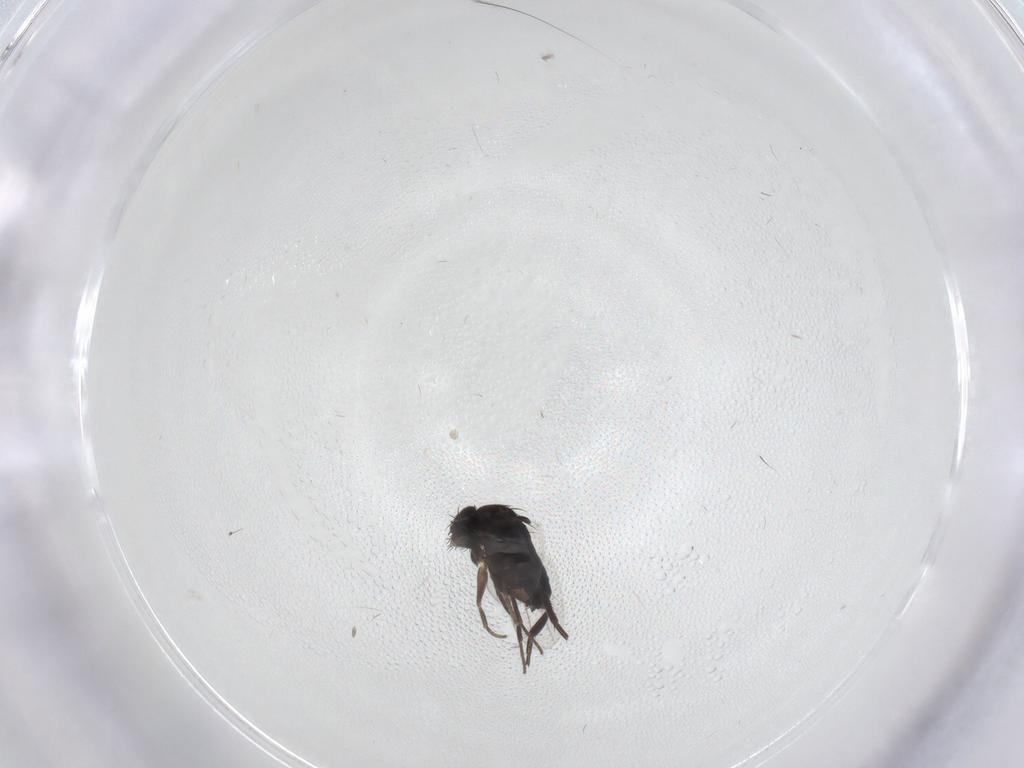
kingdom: Animalia
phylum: Arthropoda
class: Insecta
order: Diptera
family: Phoridae
